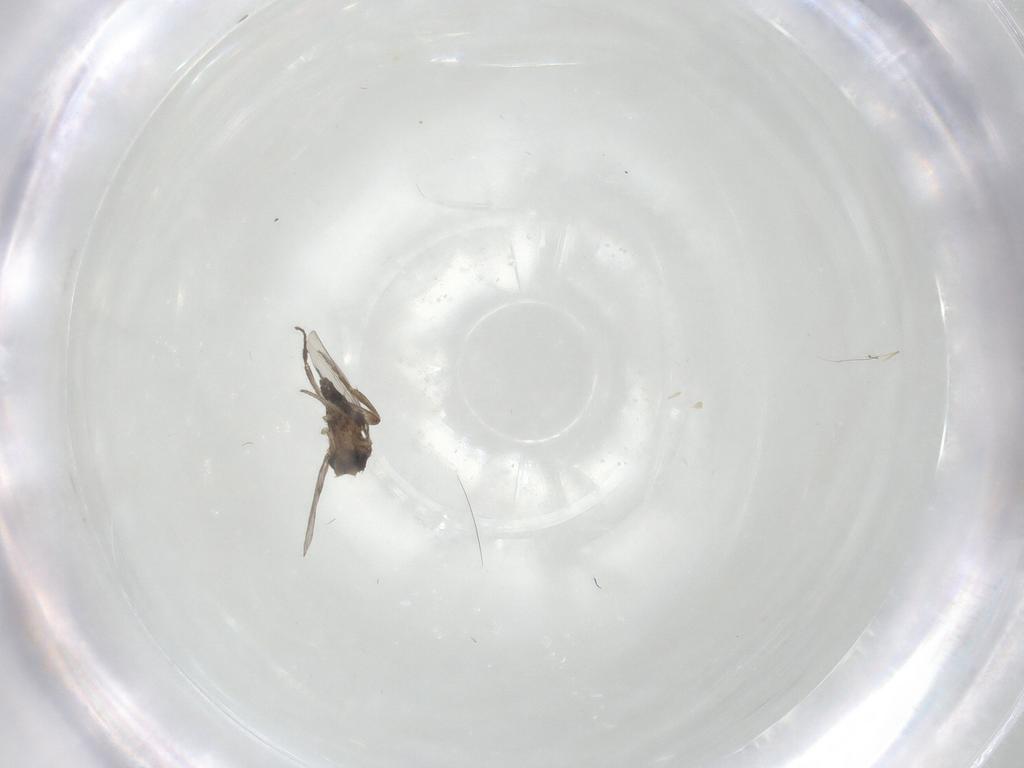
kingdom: Animalia
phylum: Arthropoda
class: Insecta
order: Diptera
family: Phoridae
